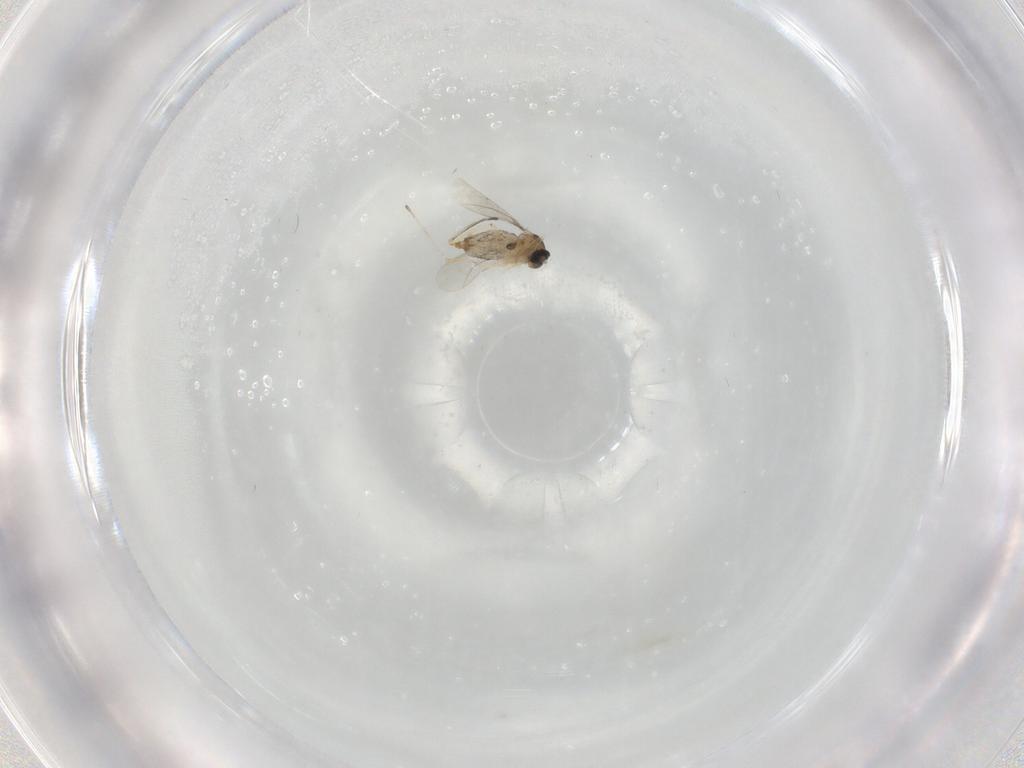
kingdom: Animalia
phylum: Arthropoda
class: Insecta
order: Diptera
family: Cecidomyiidae
